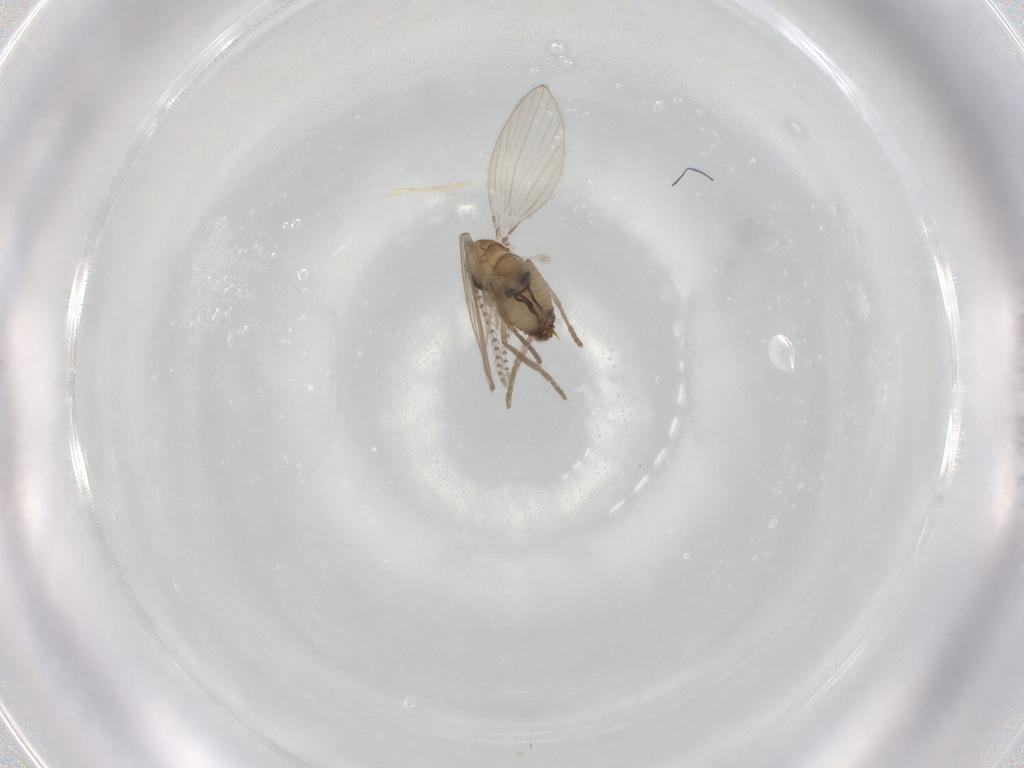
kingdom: Animalia
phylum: Arthropoda
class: Insecta
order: Diptera
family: Psychodidae
